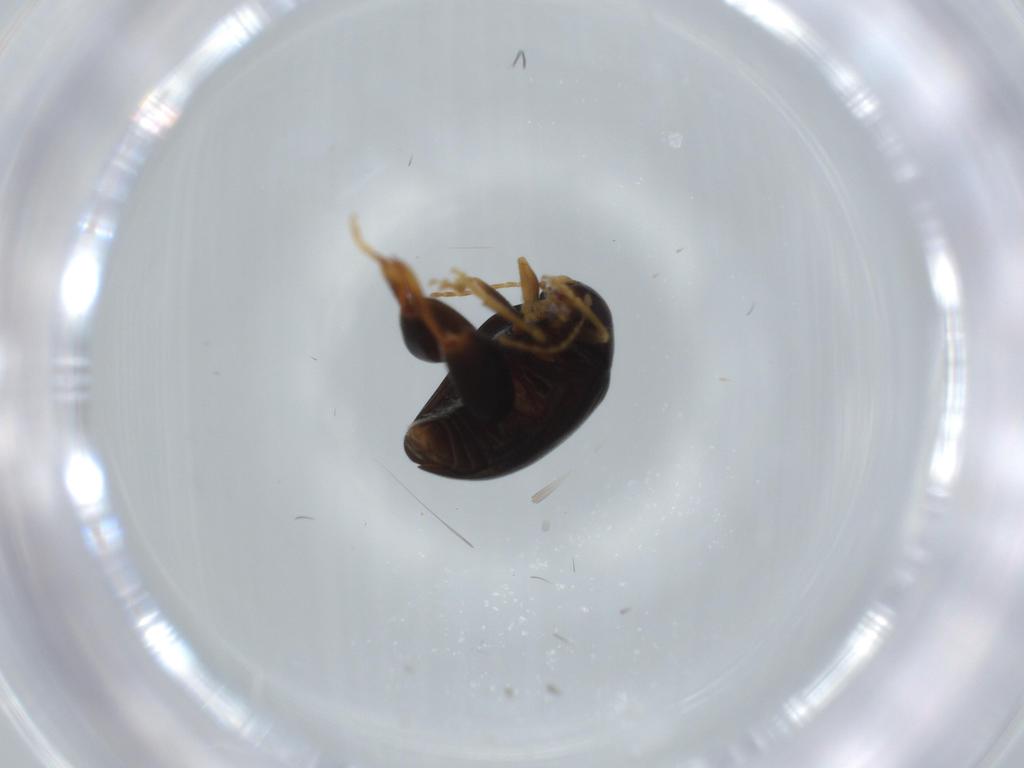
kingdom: Animalia
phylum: Arthropoda
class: Insecta
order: Coleoptera
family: Chrysomelidae
